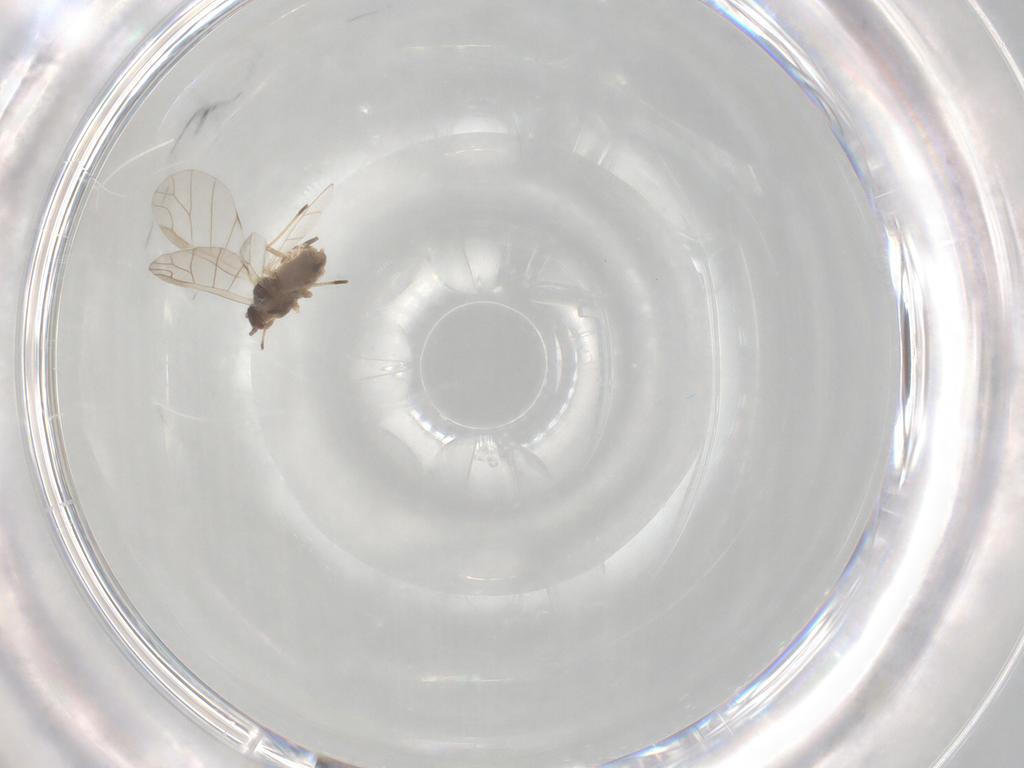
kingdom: Animalia
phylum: Arthropoda
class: Insecta
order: Hemiptera
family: Aphididae
